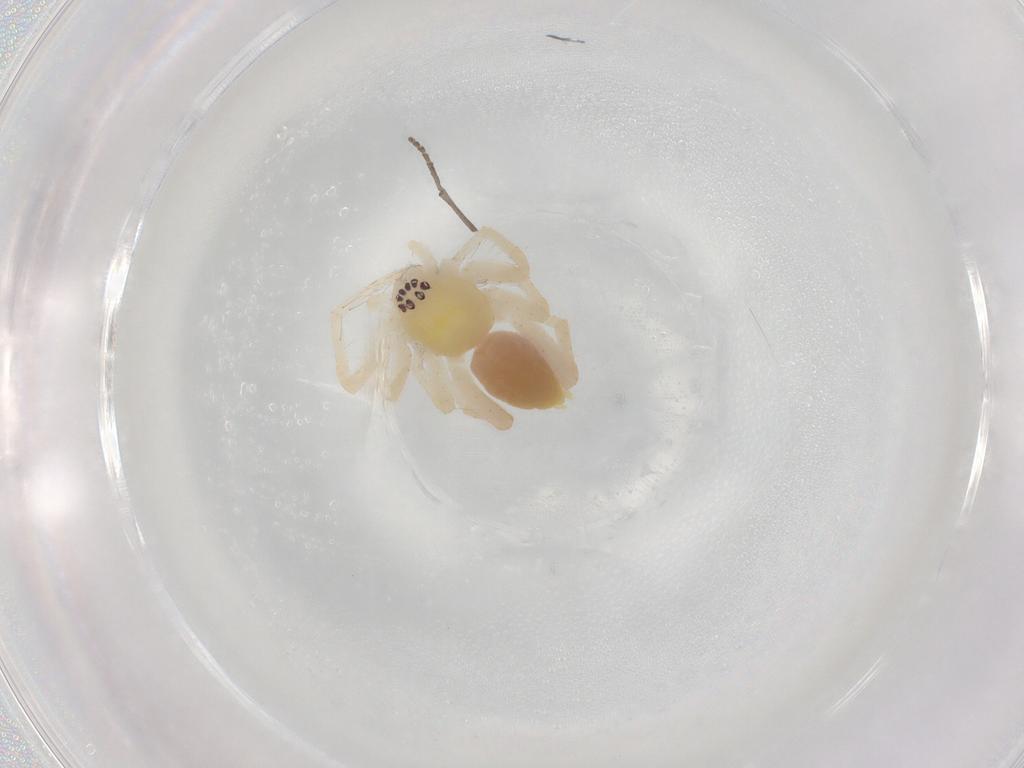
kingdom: Animalia
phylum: Arthropoda
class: Arachnida
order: Araneae
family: Anyphaenidae
